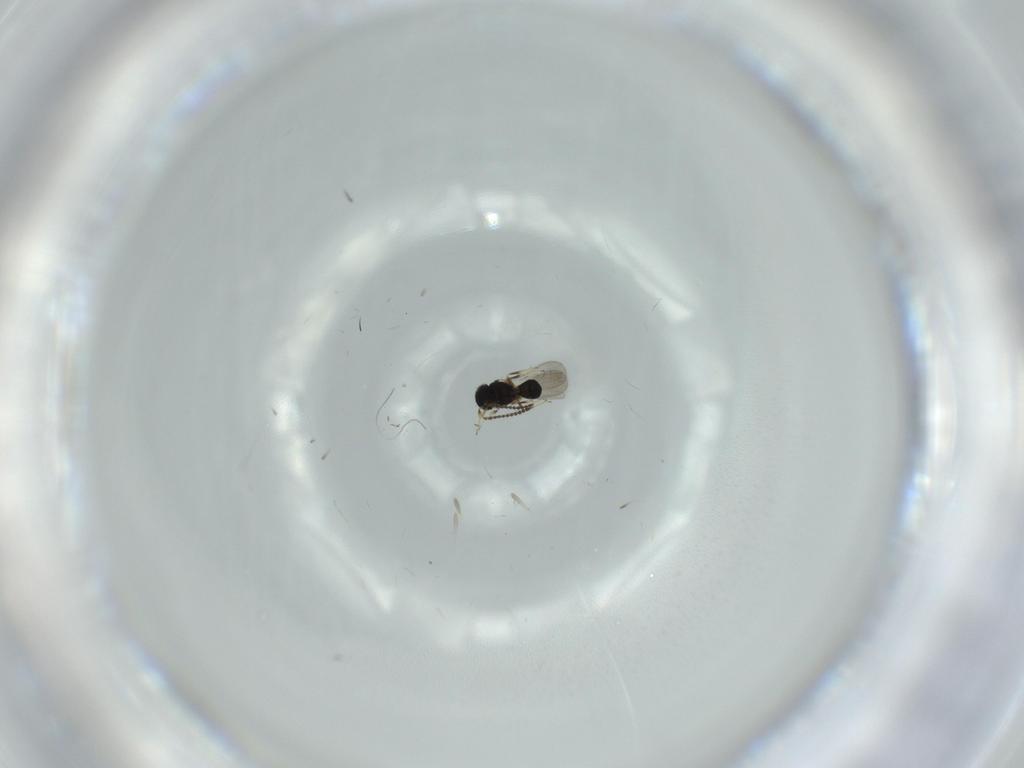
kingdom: Animalia
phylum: Arthropoda
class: Insecta
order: Hymenoptera
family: Scelionidae
